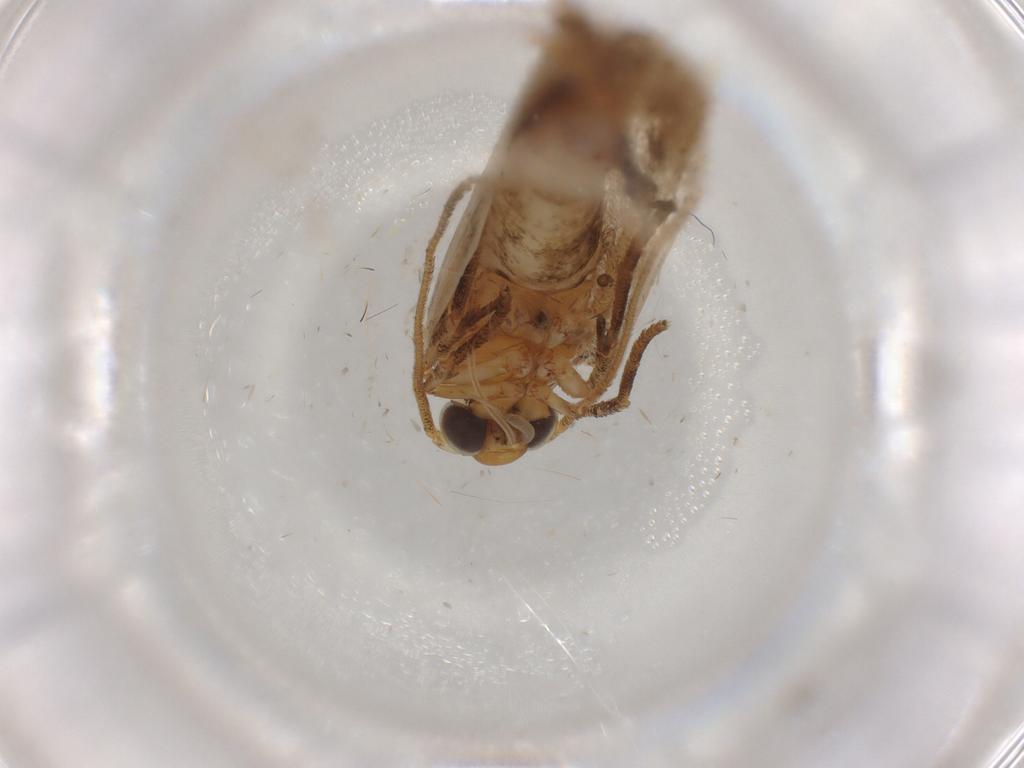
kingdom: Animalia
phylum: Arthropoda
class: Insecta
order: Lepidoptera
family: Oecophoridae
